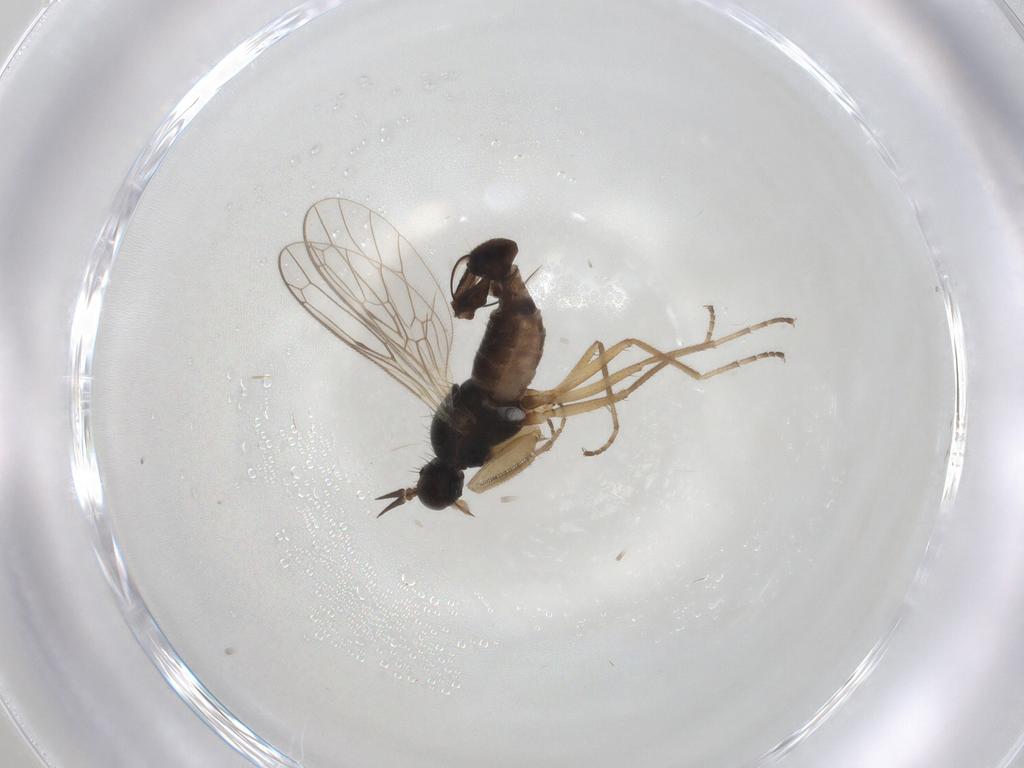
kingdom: Animalia
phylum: Arthropoda
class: Insecta
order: Diptera
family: Empididae
